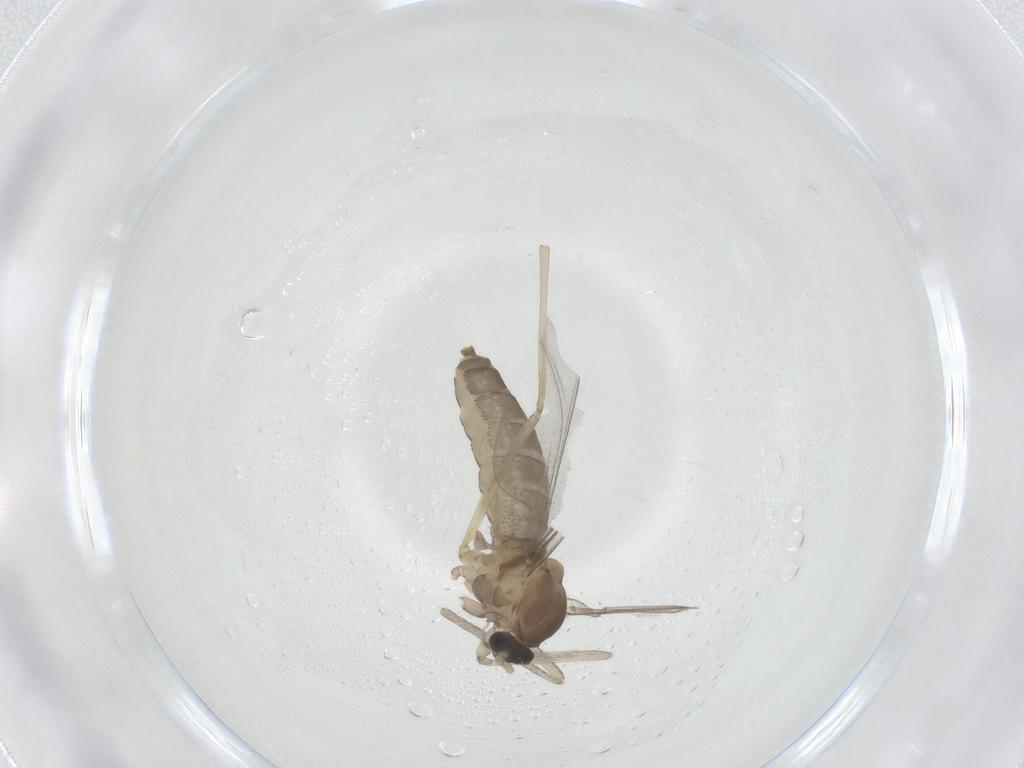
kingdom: Animalia
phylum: Arthropoda
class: Insecta
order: Diptera
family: Cecidomyiidae
